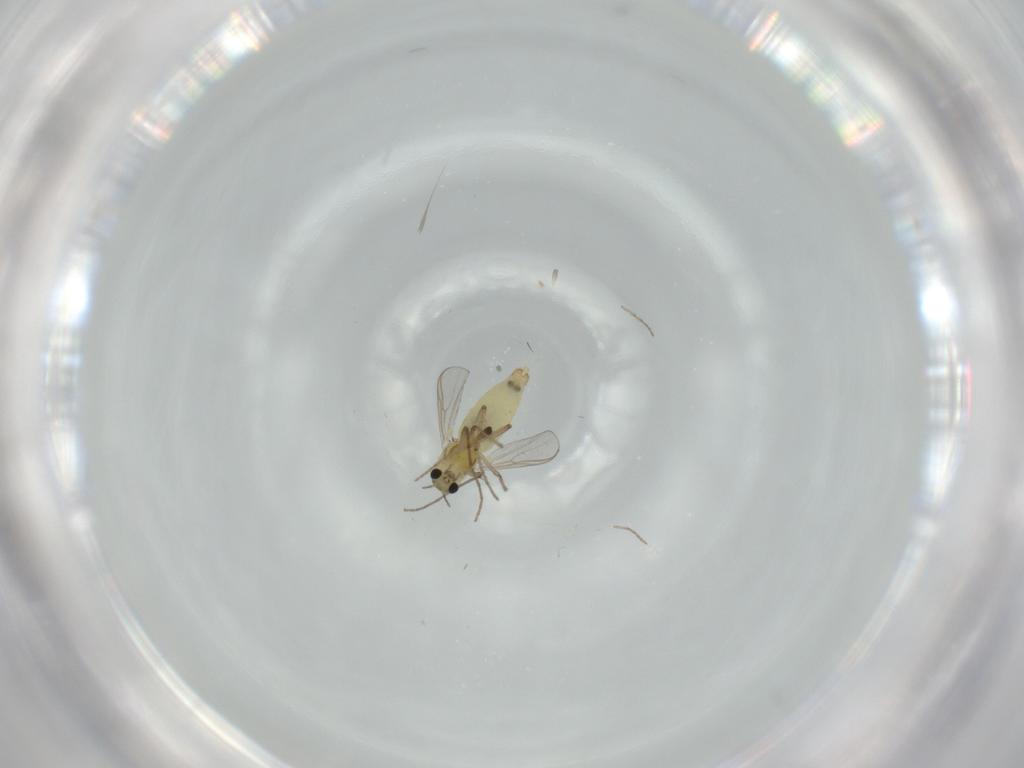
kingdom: Animalia
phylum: Arthropoda
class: Insecta
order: Diptera
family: Chironomidae
